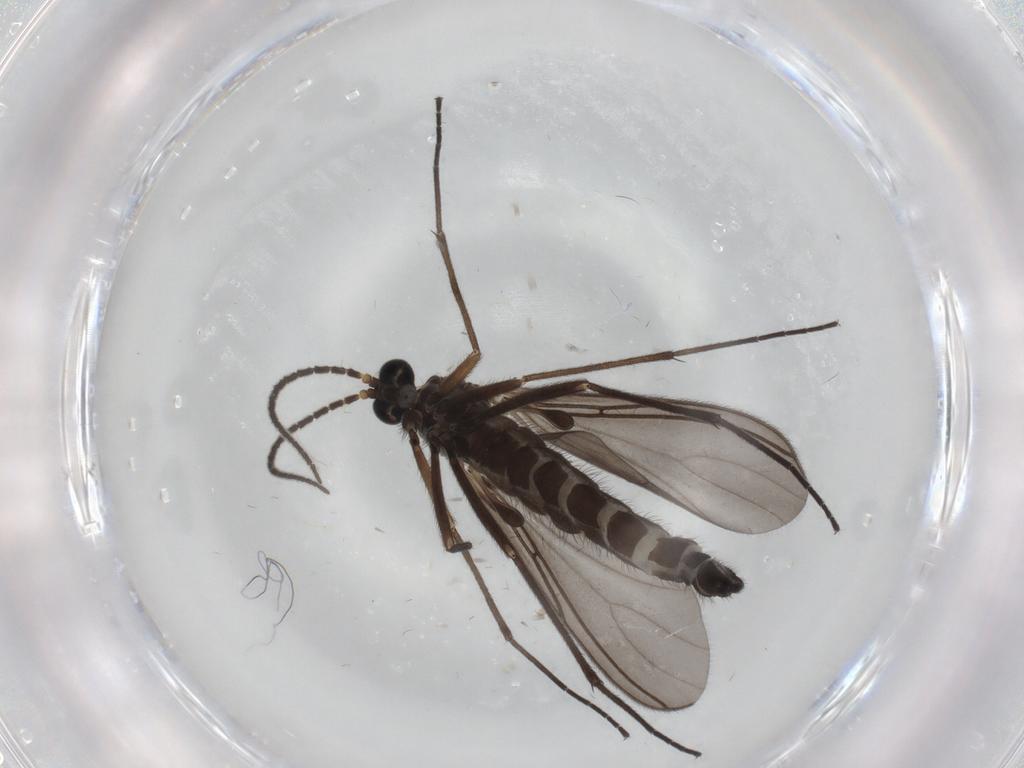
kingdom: Animalia
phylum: Arthropoda
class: Insecta
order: Diptera
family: Sciaridae
